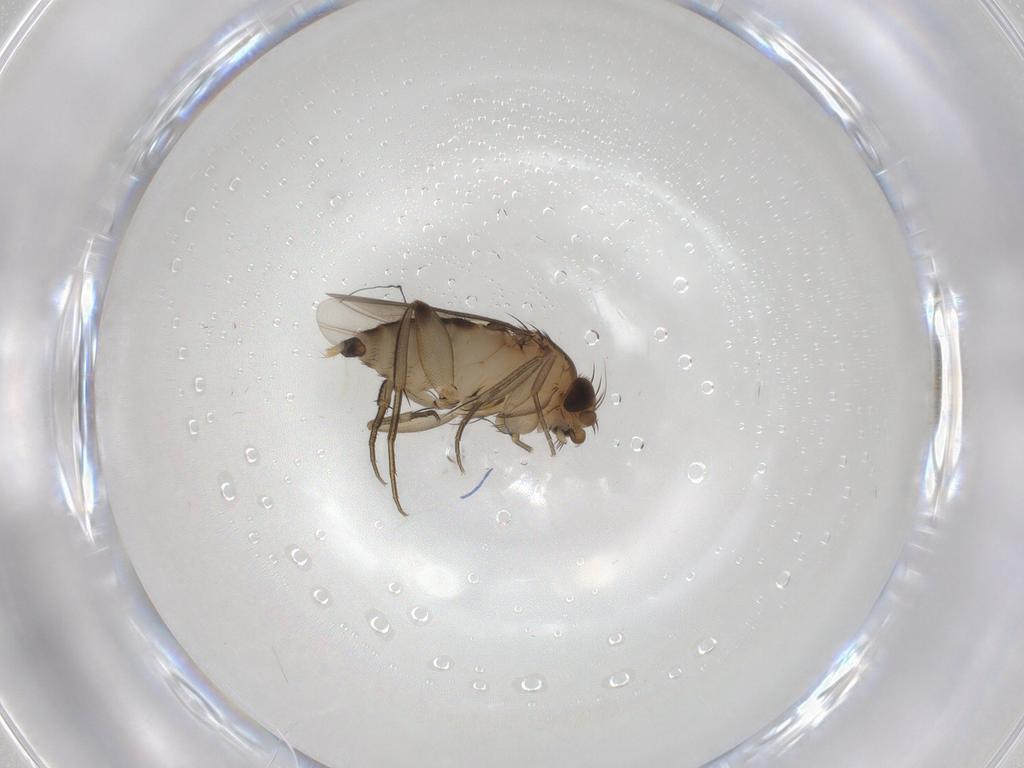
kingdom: Animalia
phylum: Arthropoda
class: Insecta
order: Diptera
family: Phoridae
